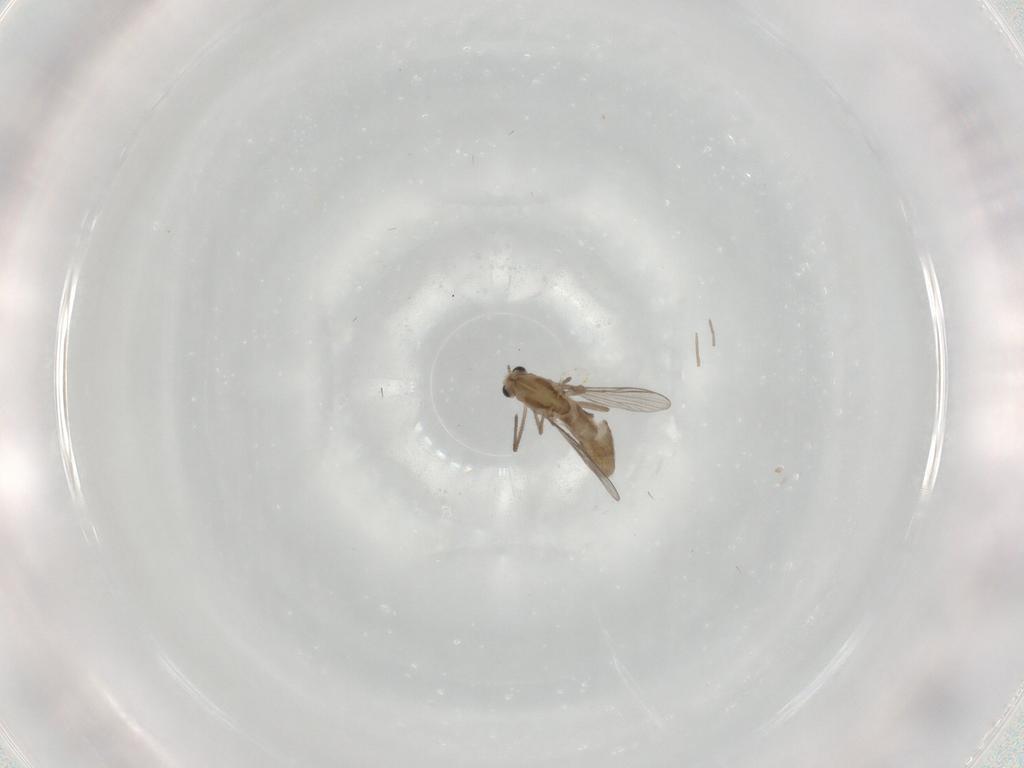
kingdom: Animalia
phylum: Arthropoda
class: Insecta
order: Diptera
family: Chironomidae
